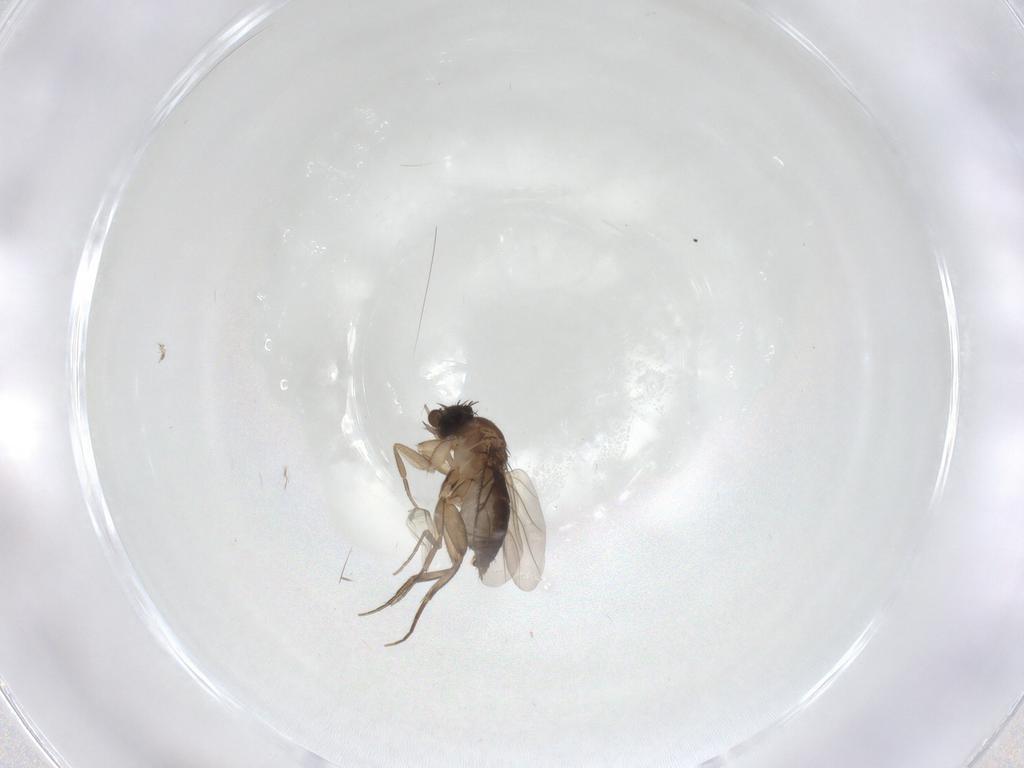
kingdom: Animalia
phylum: Arthropoda
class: Insecta
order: Diptera
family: Phoridae
